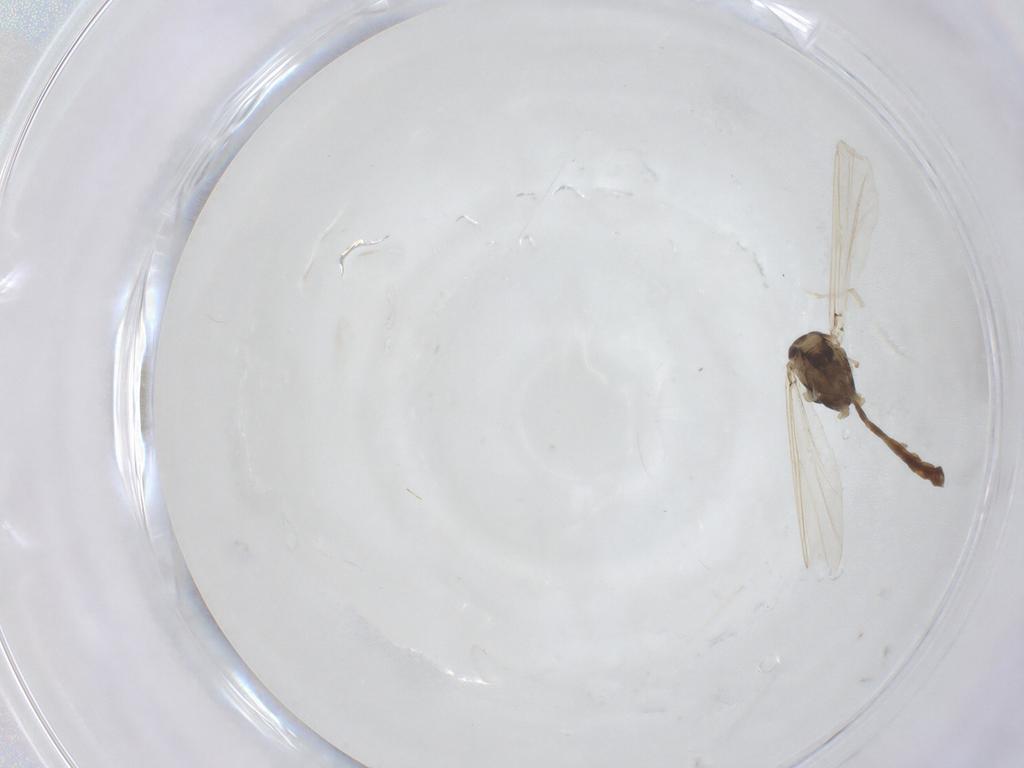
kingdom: Animalia
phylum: Arthropoda
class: Insecta
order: Diptera
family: Chironomidae
